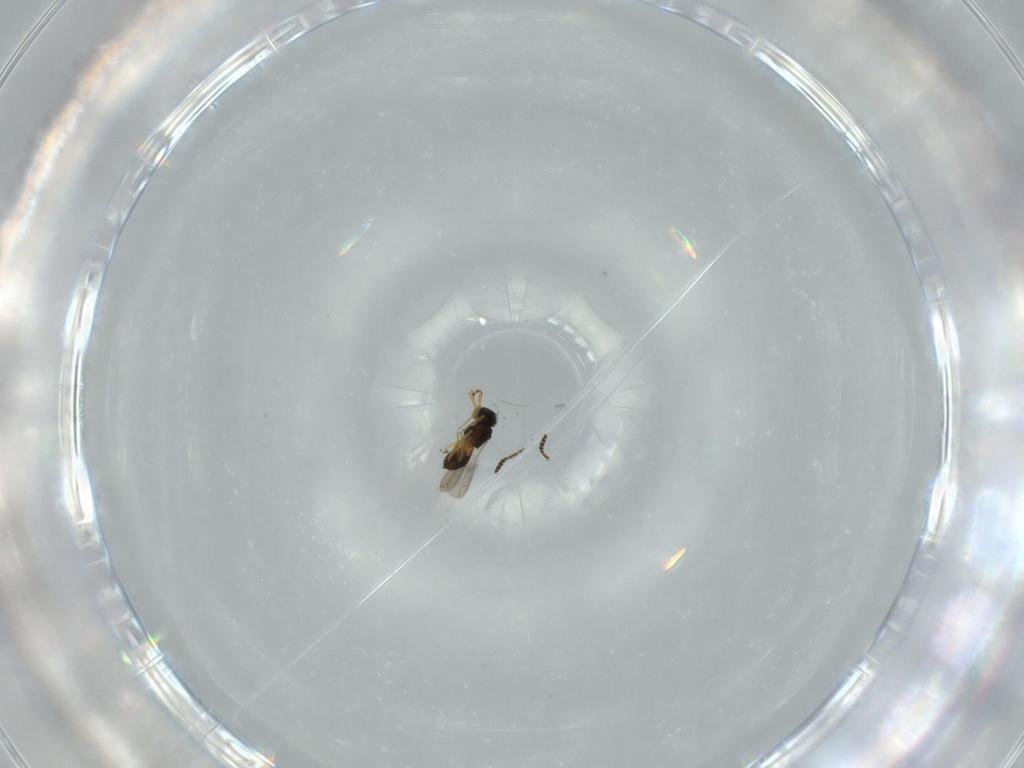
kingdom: Animalia
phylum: Arthropoda
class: Insecta
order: Hymenoptera
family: Scelionidae
